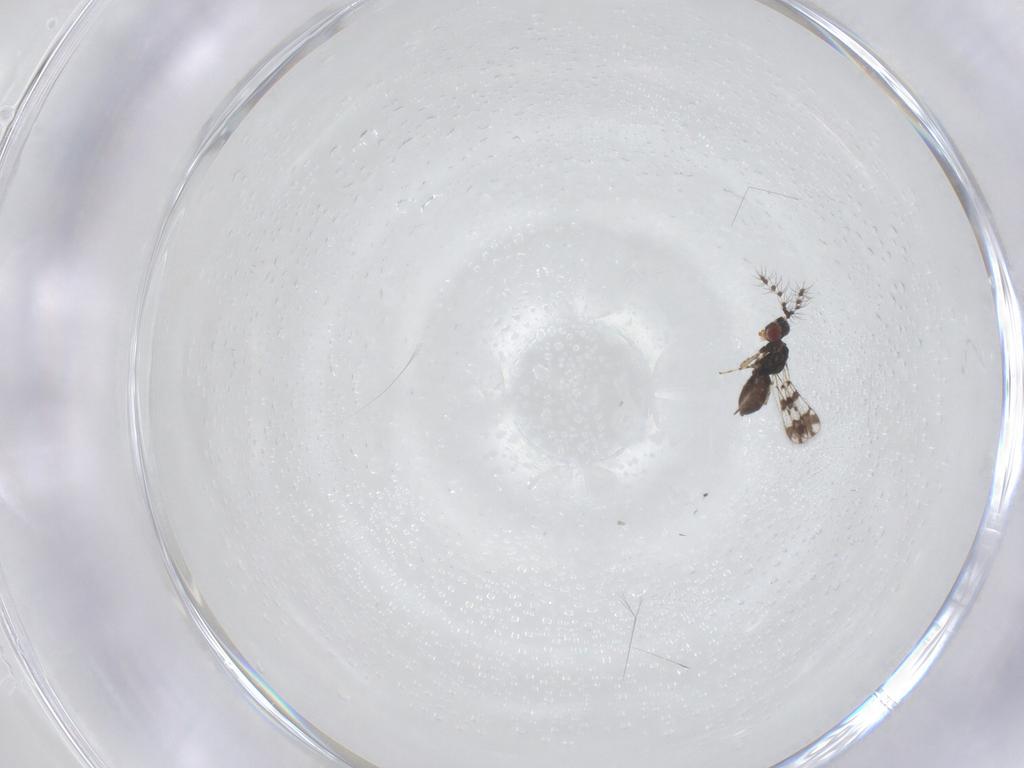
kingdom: Animalia
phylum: Arthropoda
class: Insecta
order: Hymenoptera
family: Eulophidae
